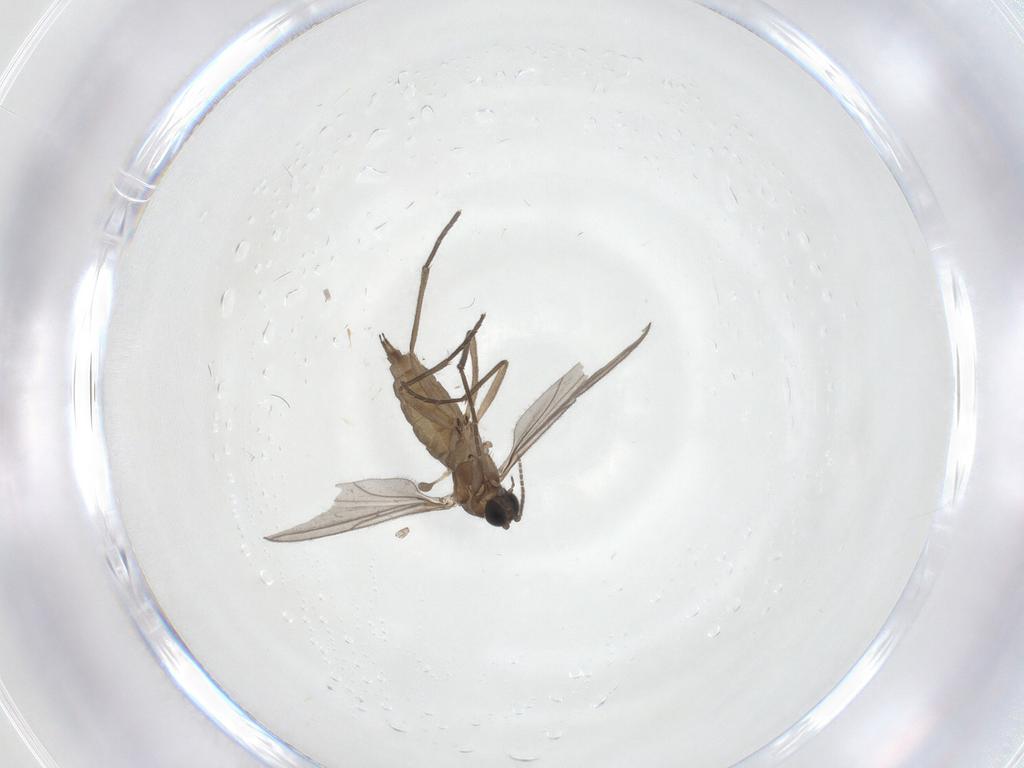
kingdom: Animalia
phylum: Arthropoda
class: Insecta
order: Diptera
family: Sciaridae
